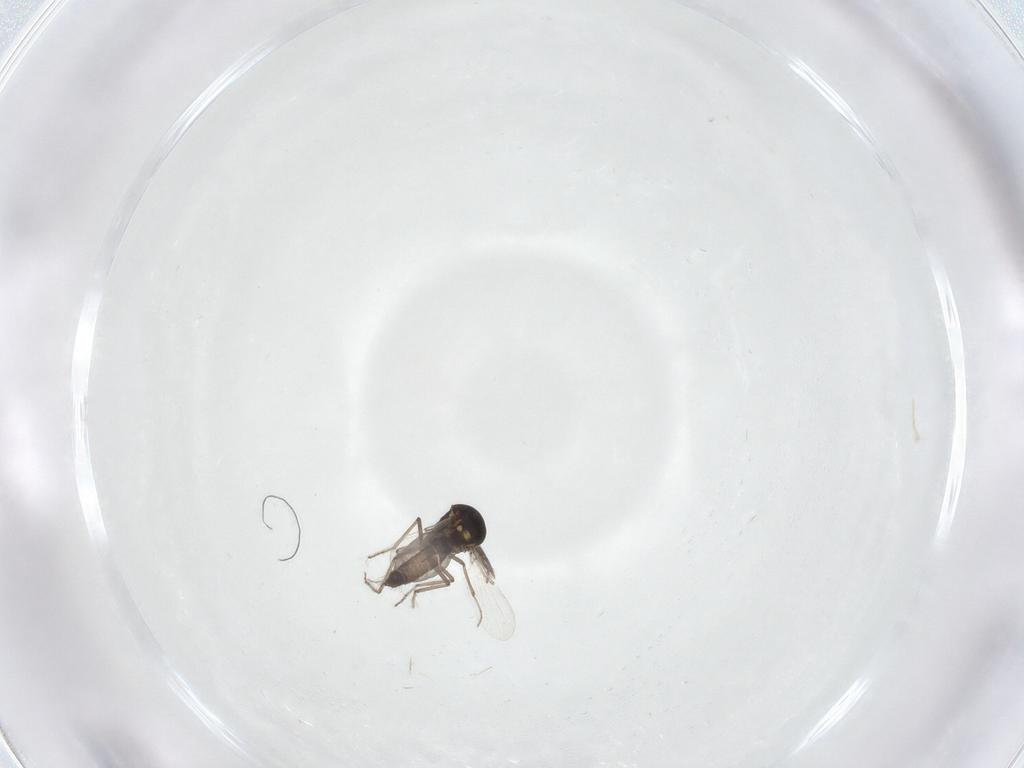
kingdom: Animalia
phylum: Arthropoda
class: Insecta
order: Diptera
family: Ceratopogonidae
